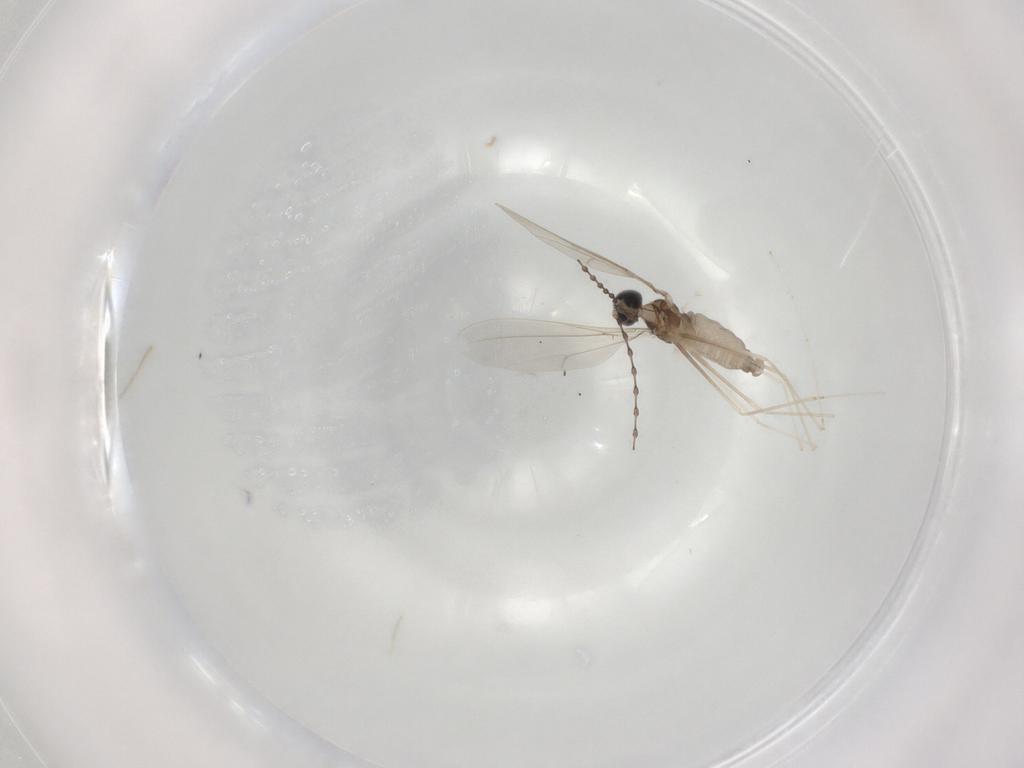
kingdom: Animalia
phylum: Arthropoda
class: Insecta
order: Diptera
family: Cecidomyiidae
